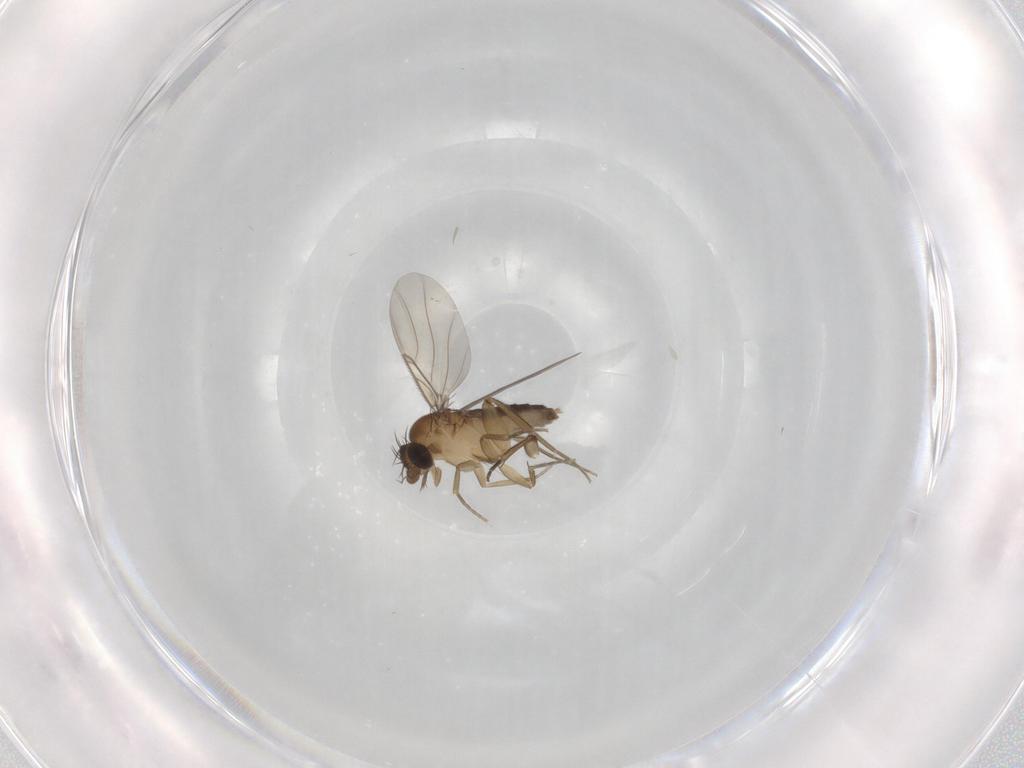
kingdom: Animalia
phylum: Arthropoda
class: Insecta
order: Diptera
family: Phoridae
